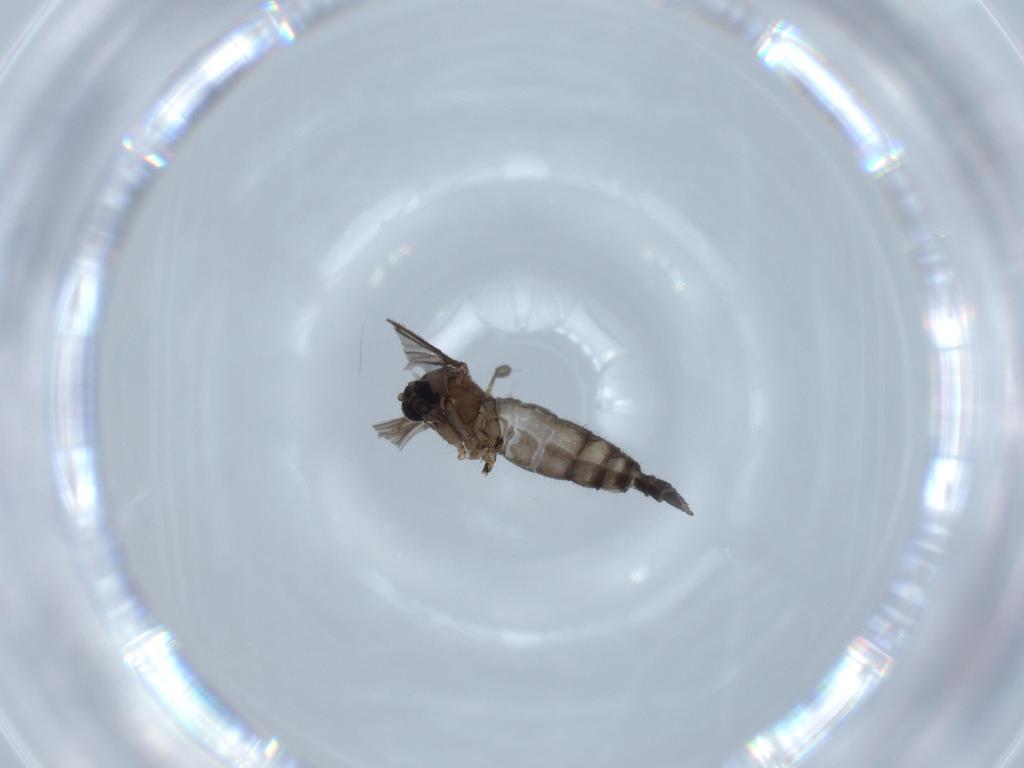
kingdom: Animalia
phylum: Arthropoda
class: Insecta
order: Diptera
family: Sciaridae
